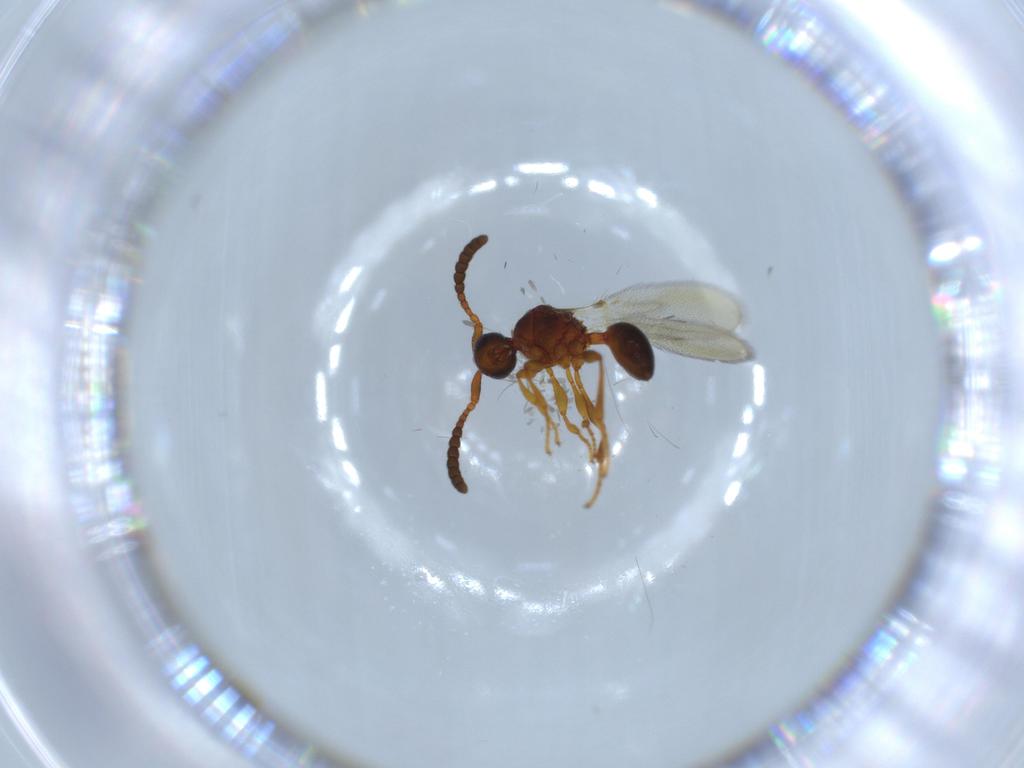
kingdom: Animalia
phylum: Arthropoda
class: Insecta
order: Hymenoptera
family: Diapriidae
